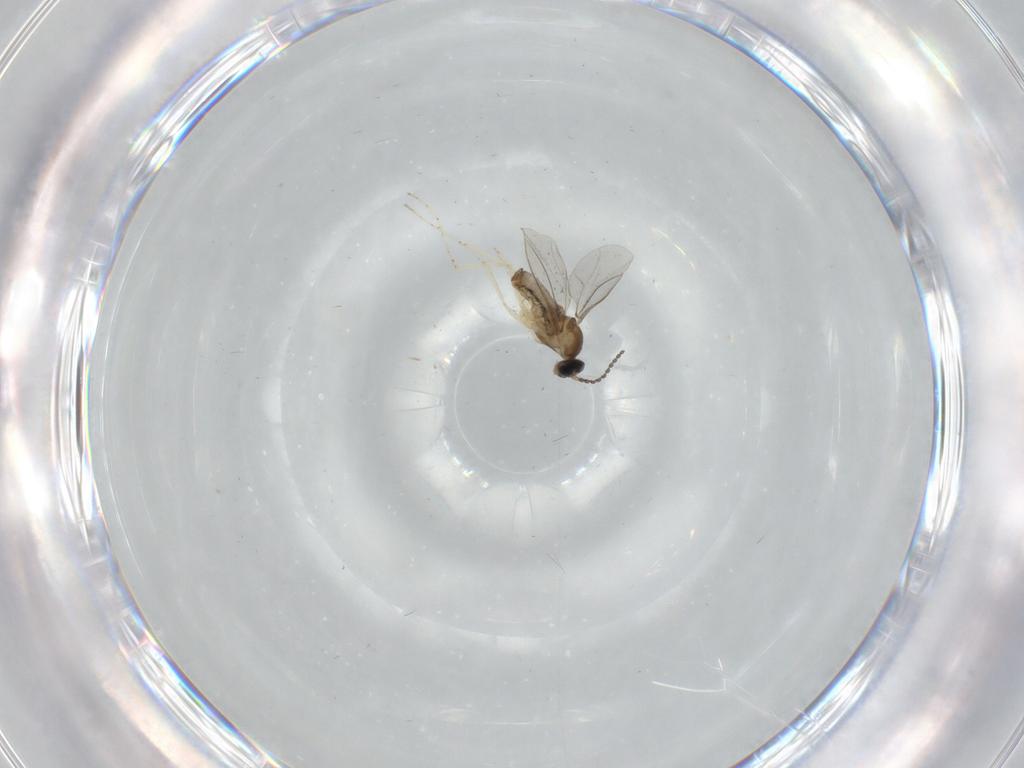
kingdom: Animalia
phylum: Arthropoda
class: Insecta
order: Diptera
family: Cecidomyiidae
